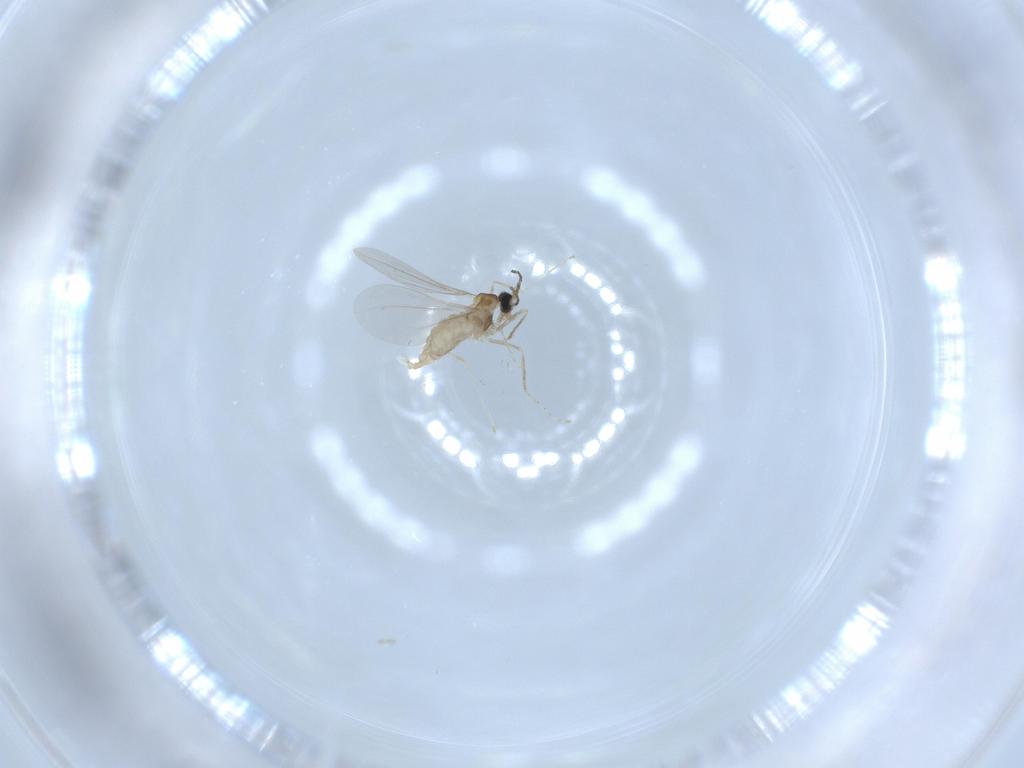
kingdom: Animalia
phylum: Arthropoda
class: Insecta
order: Diptera
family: Cecidomyiidae
